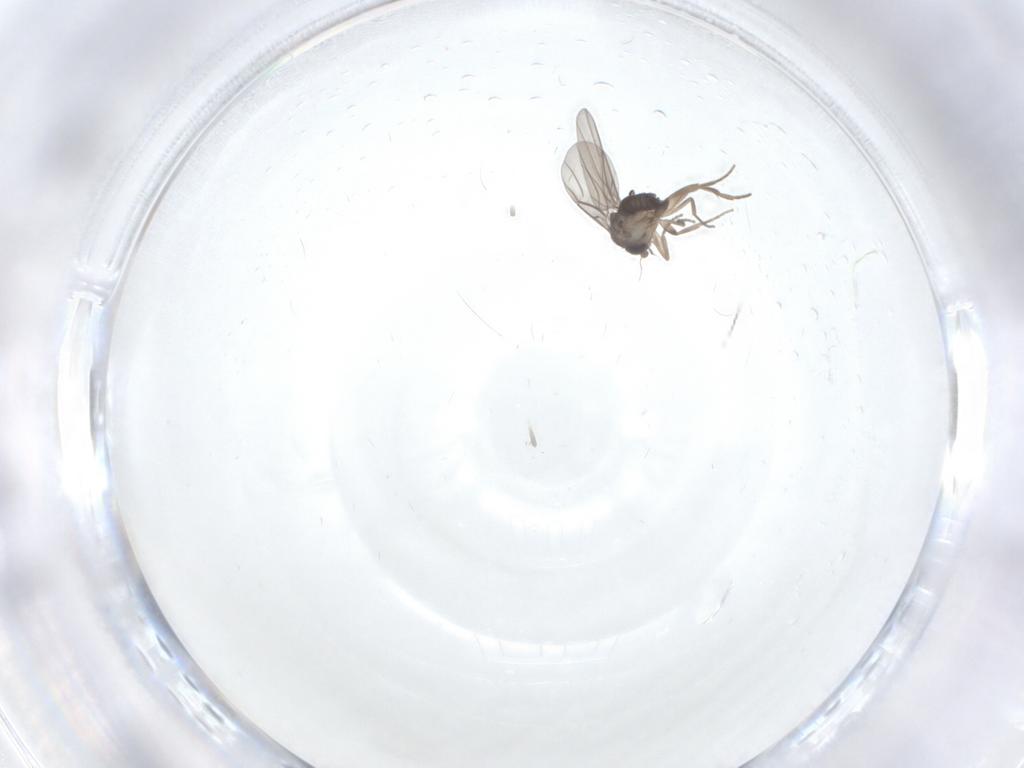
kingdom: Animalia
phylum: Arthropoda
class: Insecta
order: Diptera
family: Phoridae
